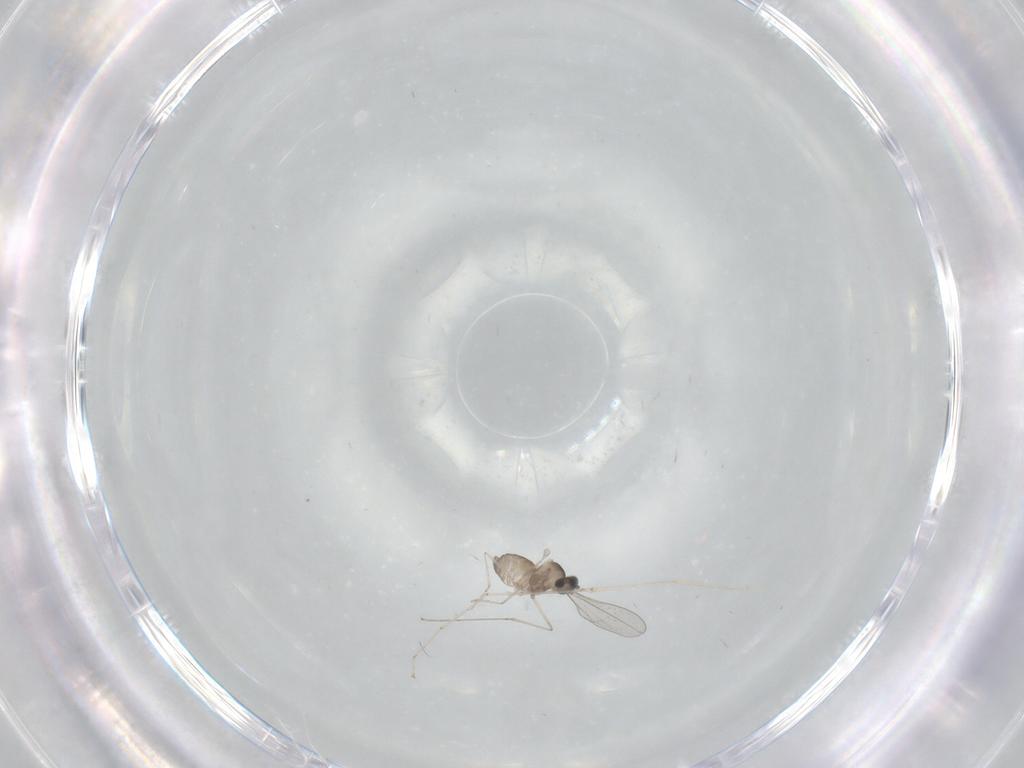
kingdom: Animalia
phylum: Arthropoda
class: Insecta
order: Diptera
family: Cecidomyiidae
